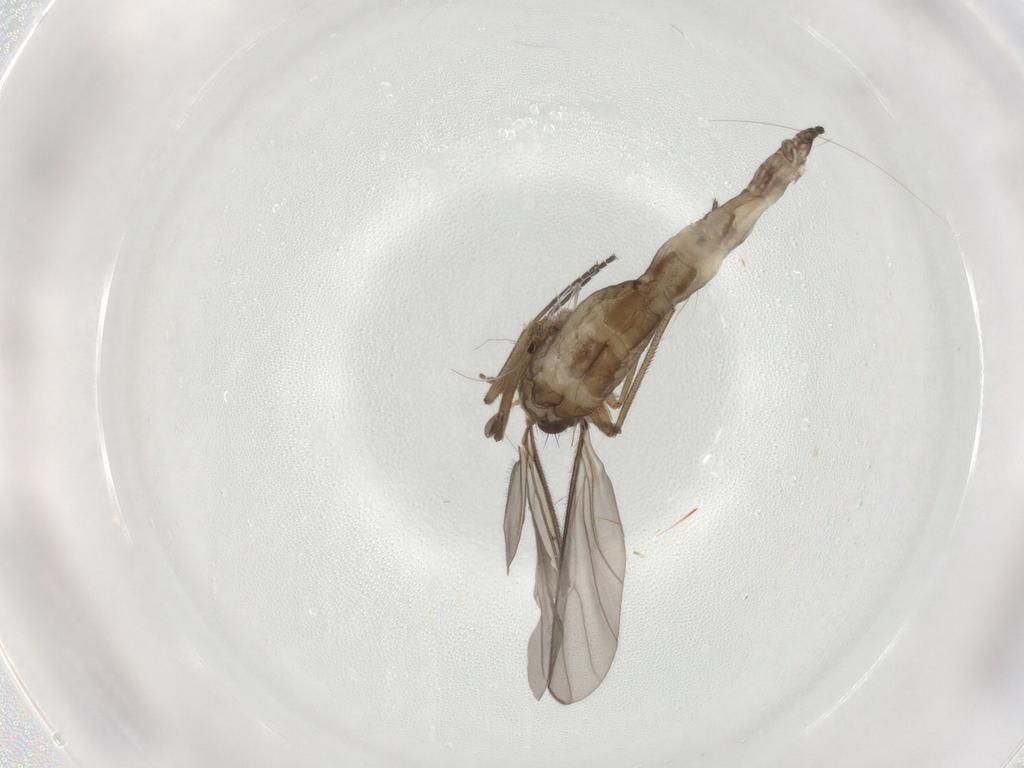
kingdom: Animalia
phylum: Arthropoda
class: Insecta
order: Diptera
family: Sciaridae
